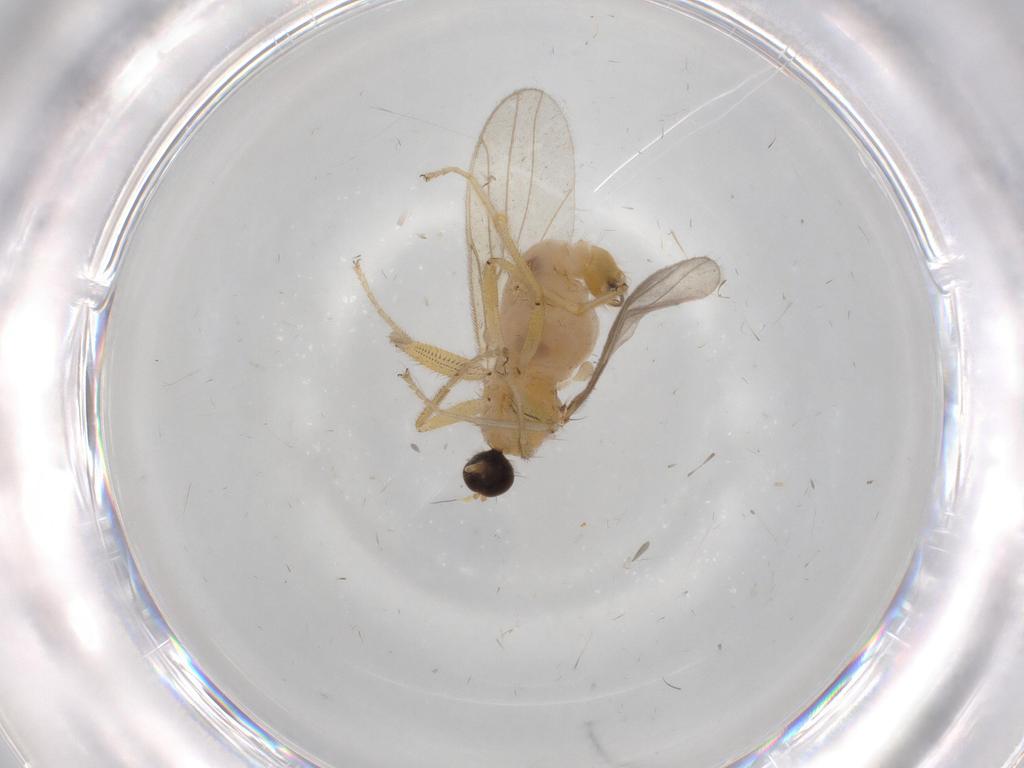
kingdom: Animalia
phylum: Arthropoda
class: Insecta
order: Diptera
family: Hybotidae
